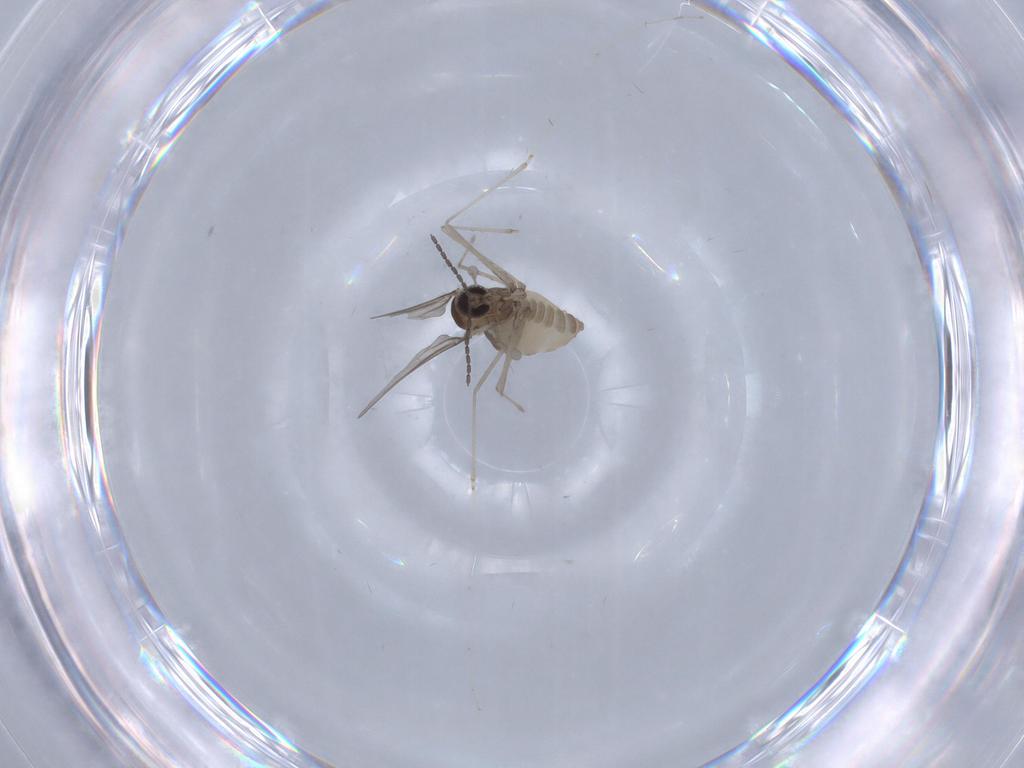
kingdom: Animalia
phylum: Arthropoda
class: Insecta
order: Diptera
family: Cecidomyiidae
